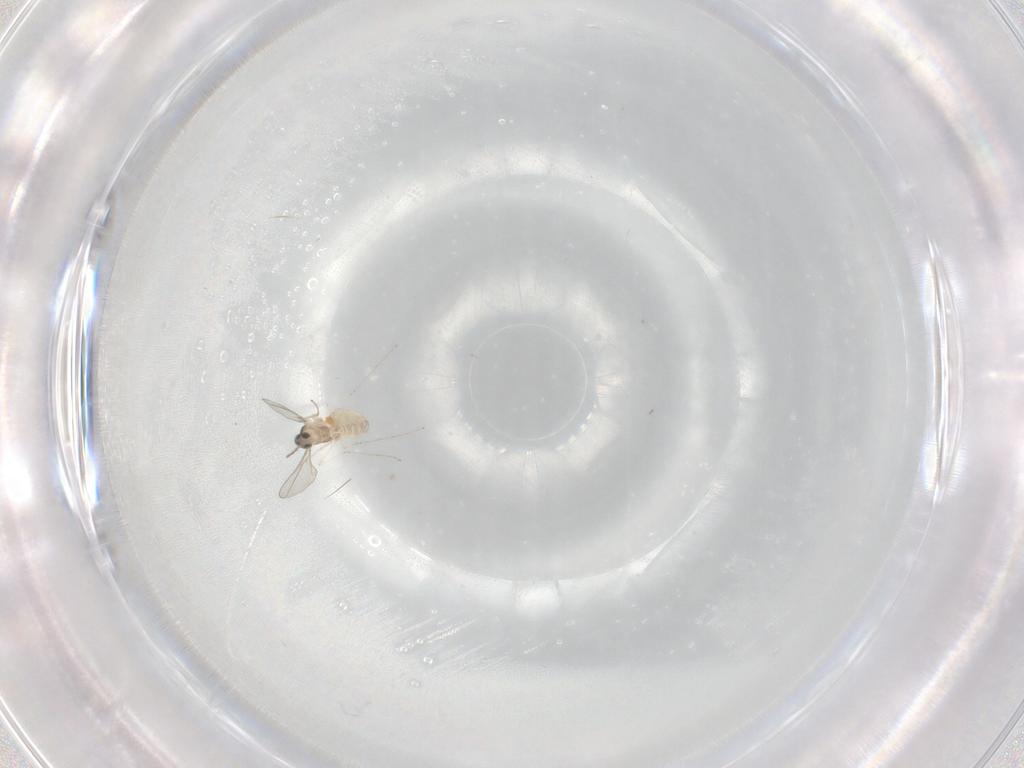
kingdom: Animalia
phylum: Arthropoda
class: Insecta
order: Diptera
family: Cecidomyiidae
